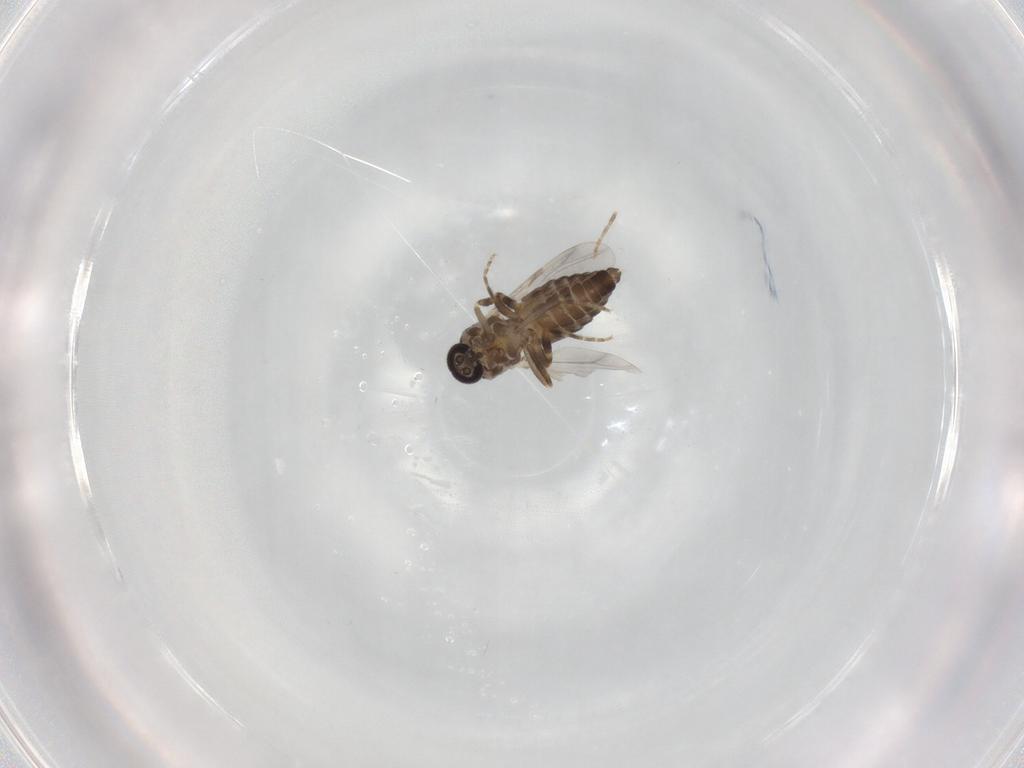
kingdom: Animalia
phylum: Arthropoda
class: Insecta
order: Diptera
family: Ceratopogonidae
